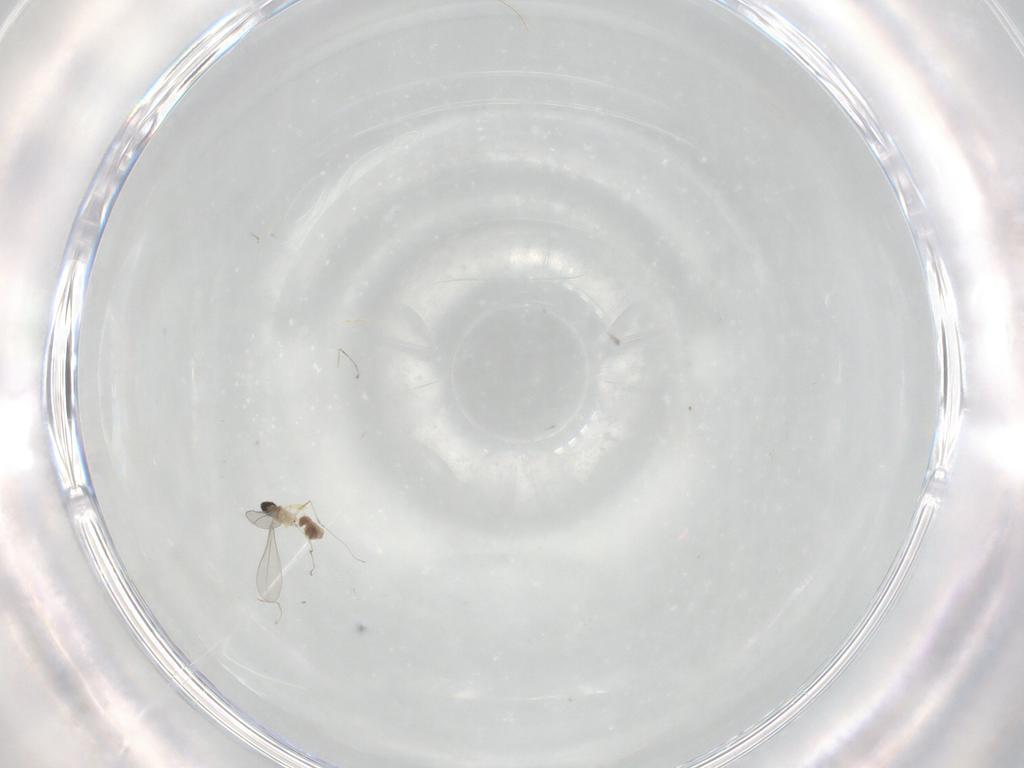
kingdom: Animalia
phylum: Arthropoda
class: Insecta
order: Diptera
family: Cecidomyiidae
